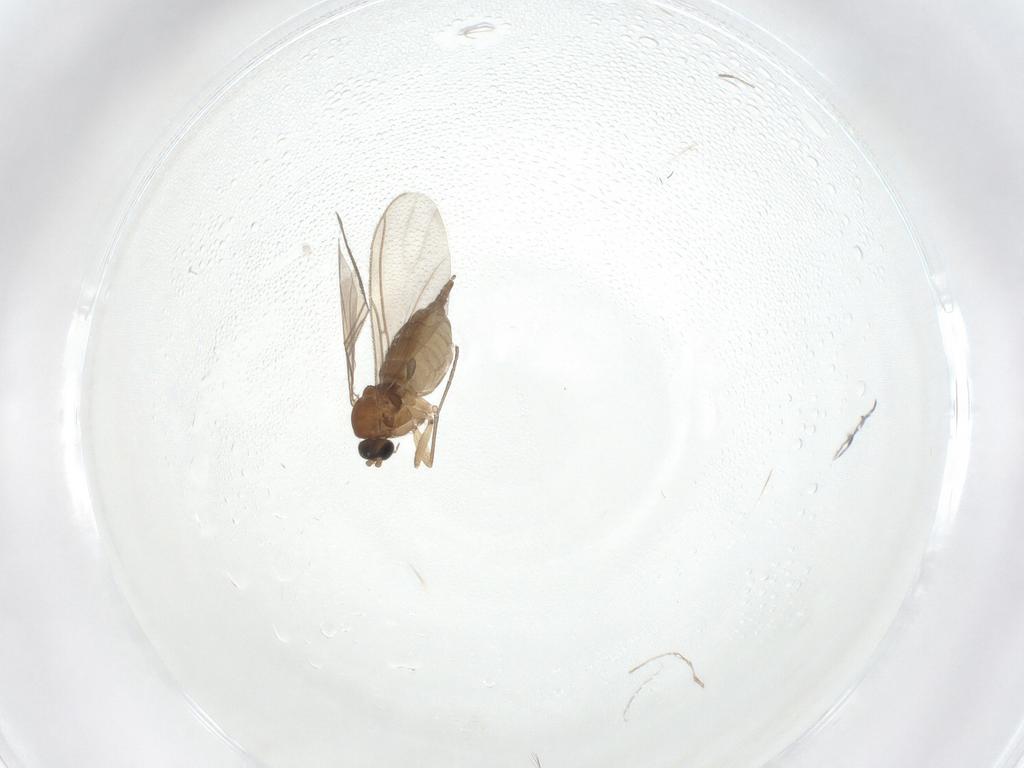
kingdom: Animalia
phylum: Arthropoda
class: Insecta
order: Diptera
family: Sciaridae
